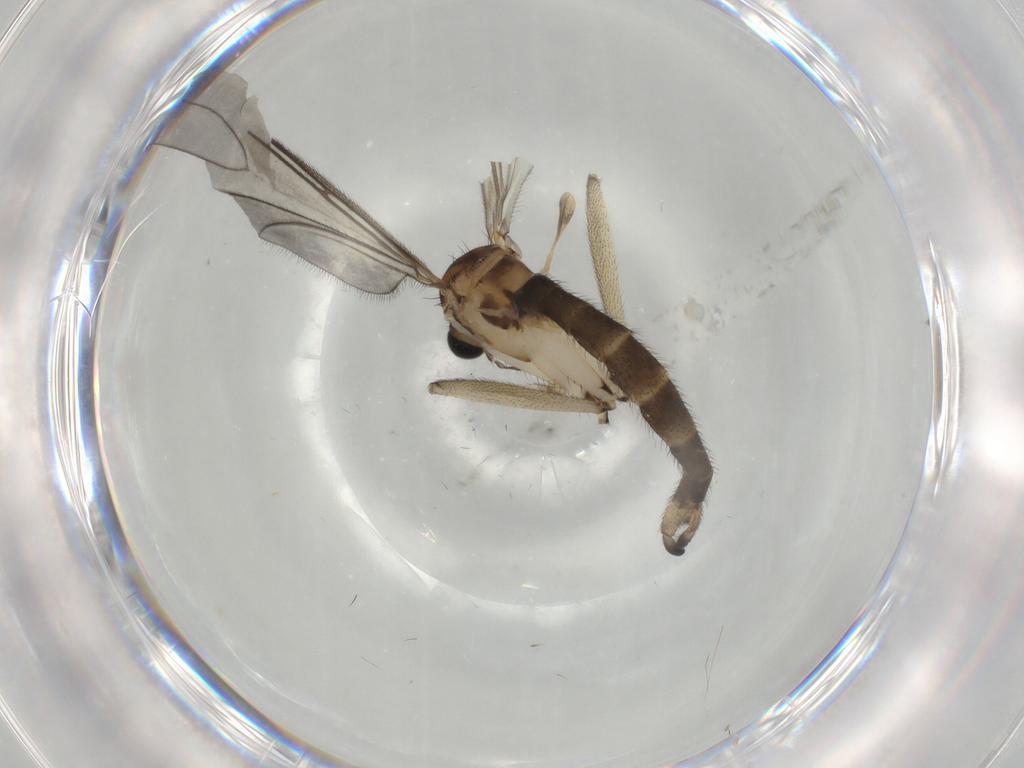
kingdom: Animalia
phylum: Arthropoda
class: Insecta
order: Diptera
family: Sciaridae
